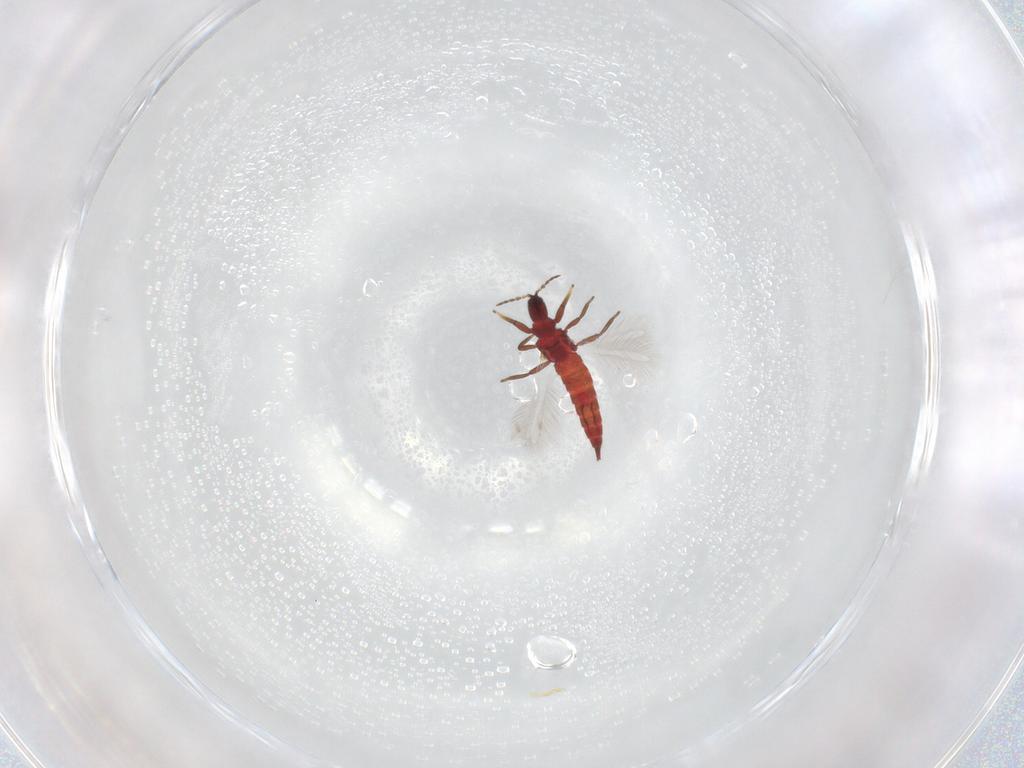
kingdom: Animalia
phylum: Arthropoda
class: Insecta
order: Thysanoptera
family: Phlaeothripidae
